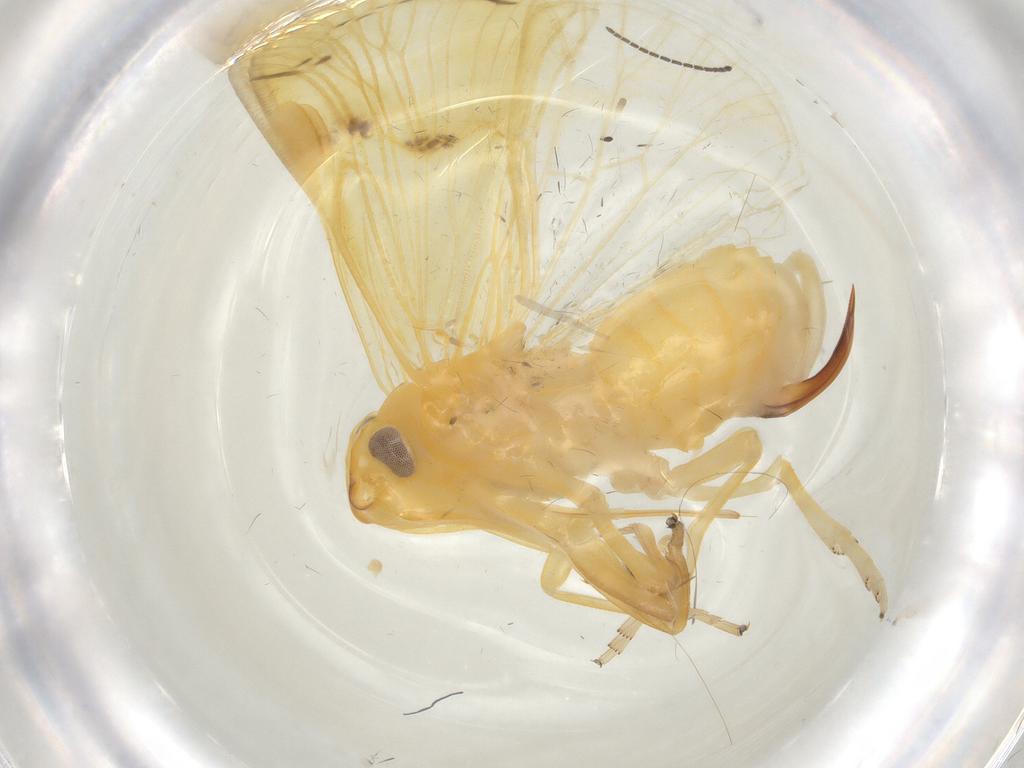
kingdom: Animalia
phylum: Arthropoda
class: Insecta
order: Hemiptera
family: Cixiidae
